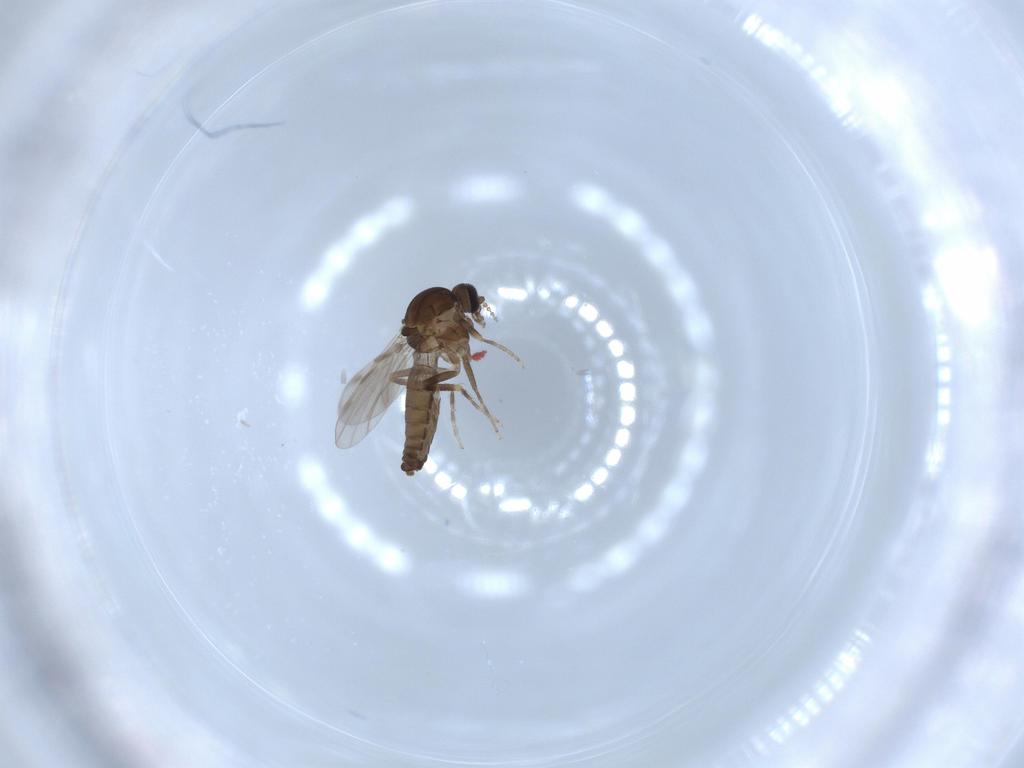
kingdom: Animalia
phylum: Arthropoda
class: Insecta
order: Diptera
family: Ceratopogonidae
